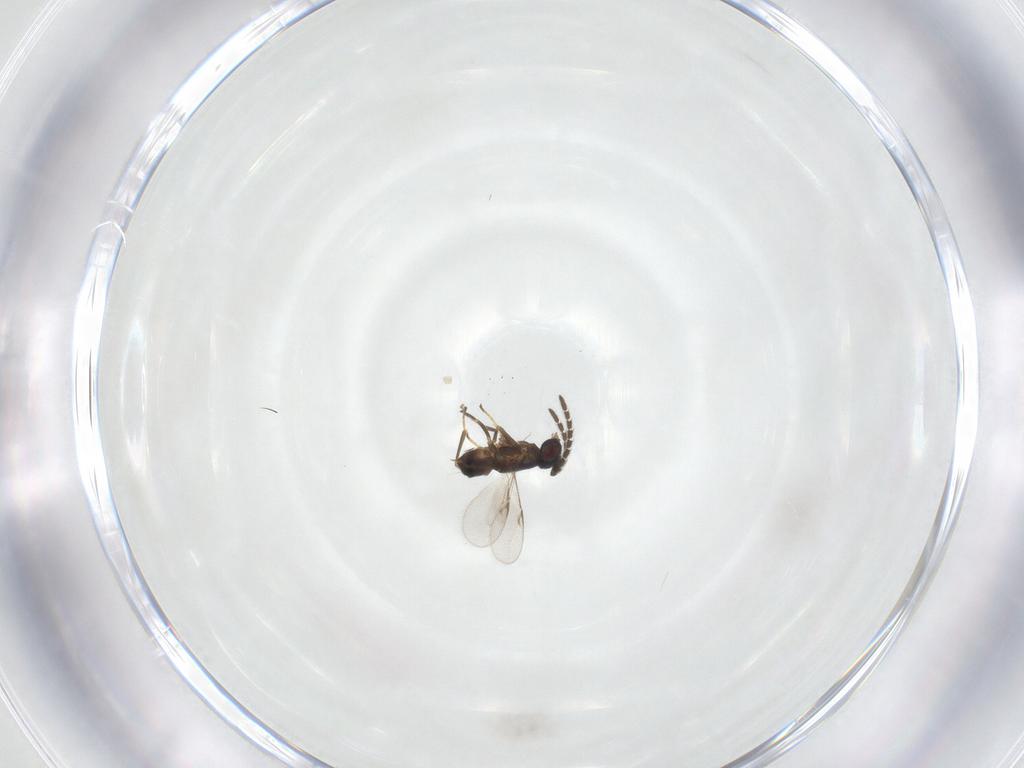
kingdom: Animalia
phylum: Arthropoda
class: Insecta
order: Hymenoptera
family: Encyrtidae
